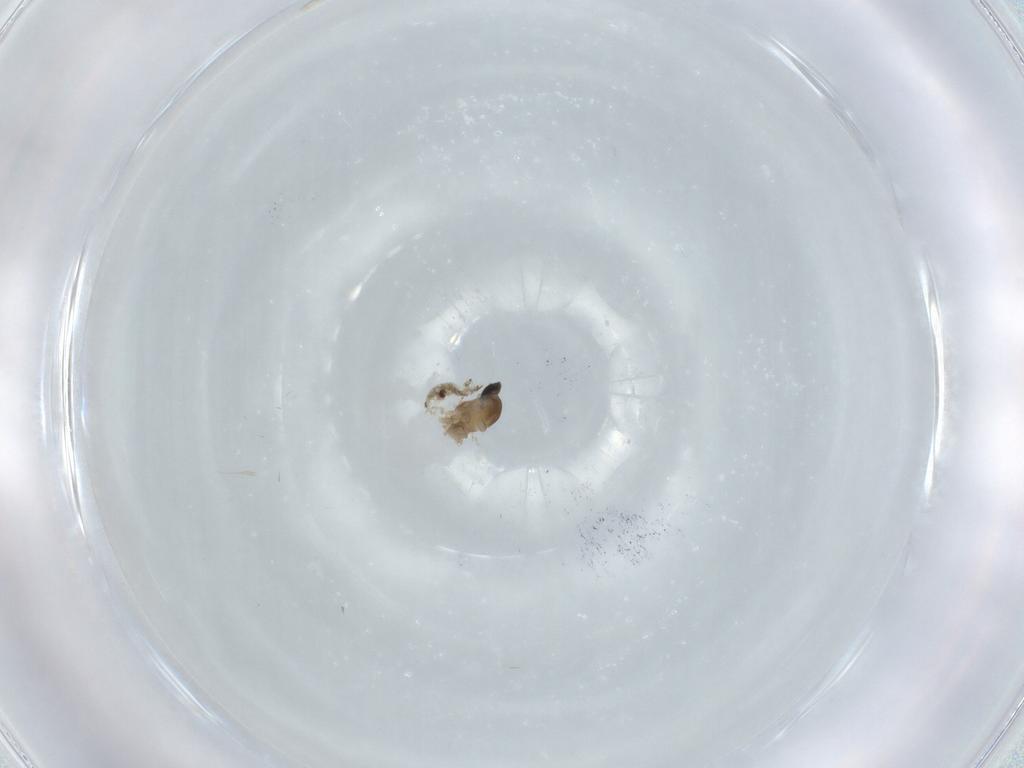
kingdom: Animalia
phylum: Arthropoda
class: Insecta
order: Diptera
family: Cecidomyiidae
